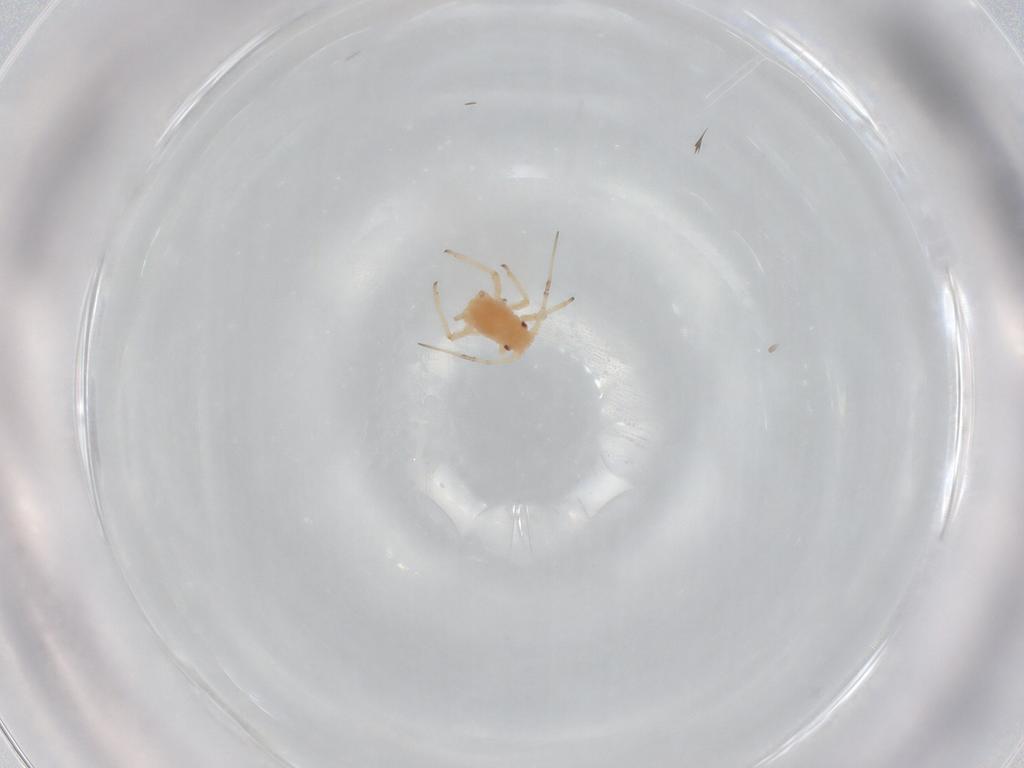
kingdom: Animalia
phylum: Arthropoda
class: Insecta
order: Hemiptera
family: Aphididae
